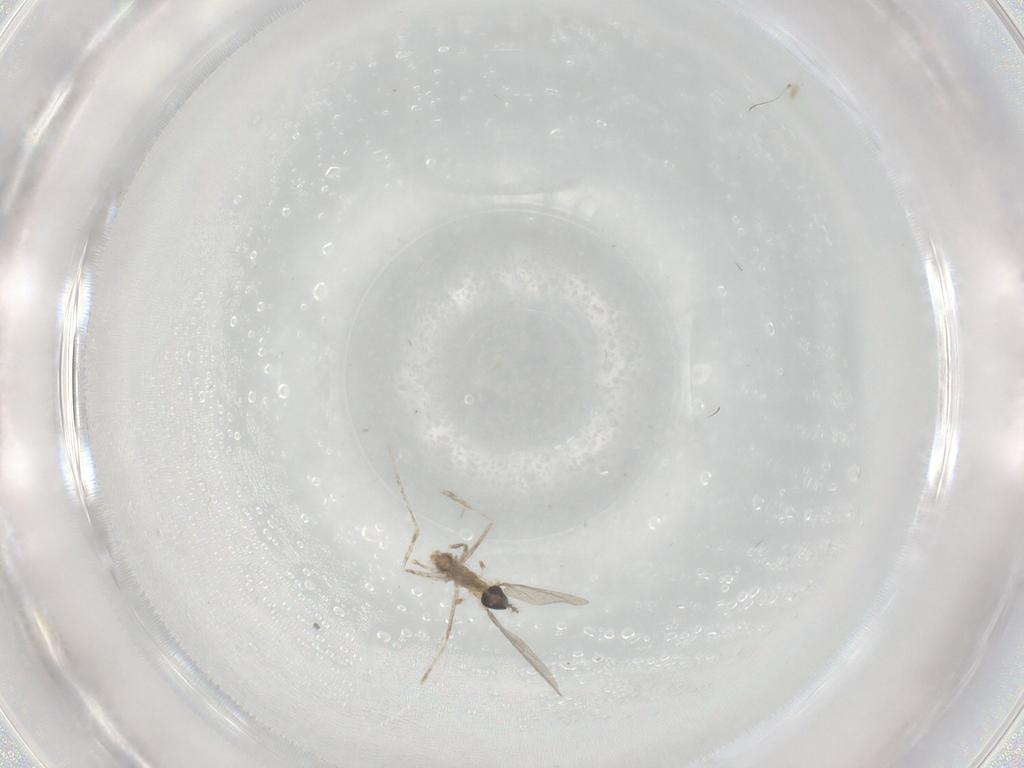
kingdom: Animalia
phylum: Arthropoda
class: Insecta
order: Diptera
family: Cecidomyiidae
